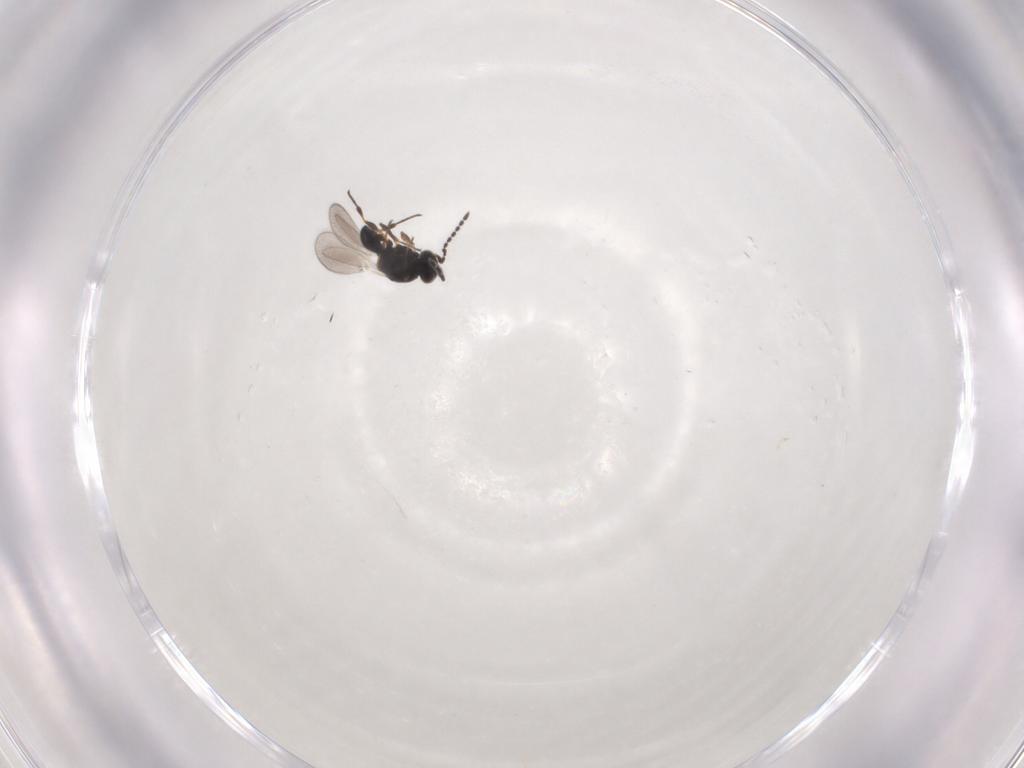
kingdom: Animalia
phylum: Arthropoda
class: Insecta
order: Hymenoptera
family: Platygastridae
